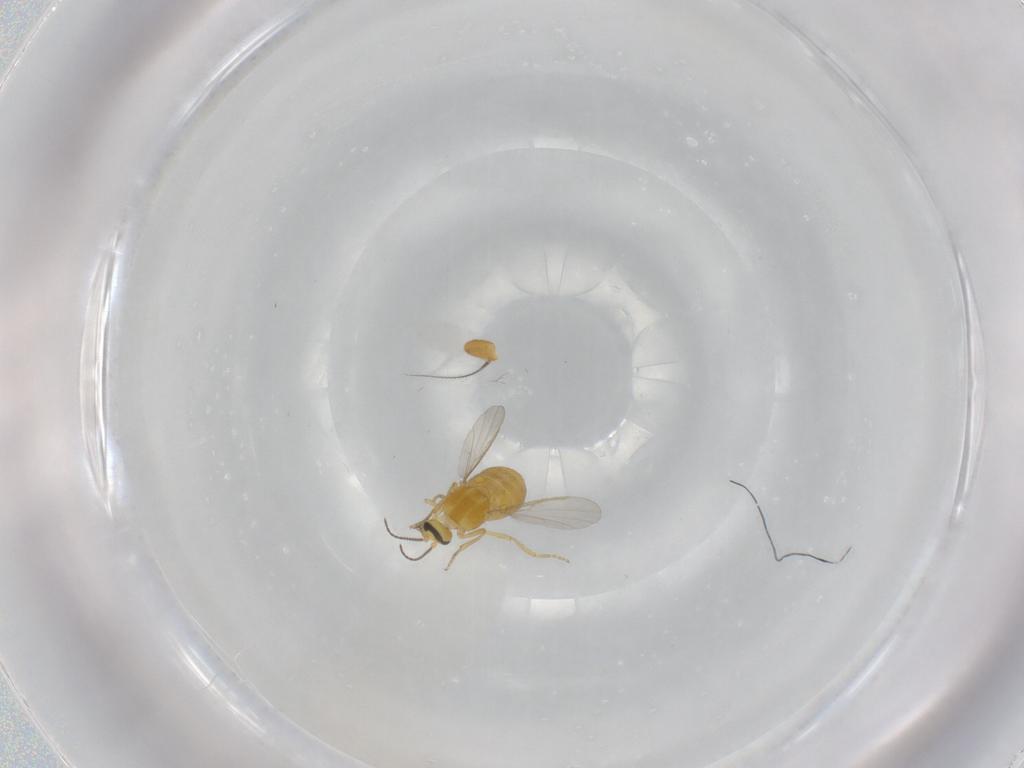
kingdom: Animalia
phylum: Arthropoda
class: Insecta
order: Diptera
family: Ceratopogonidae
